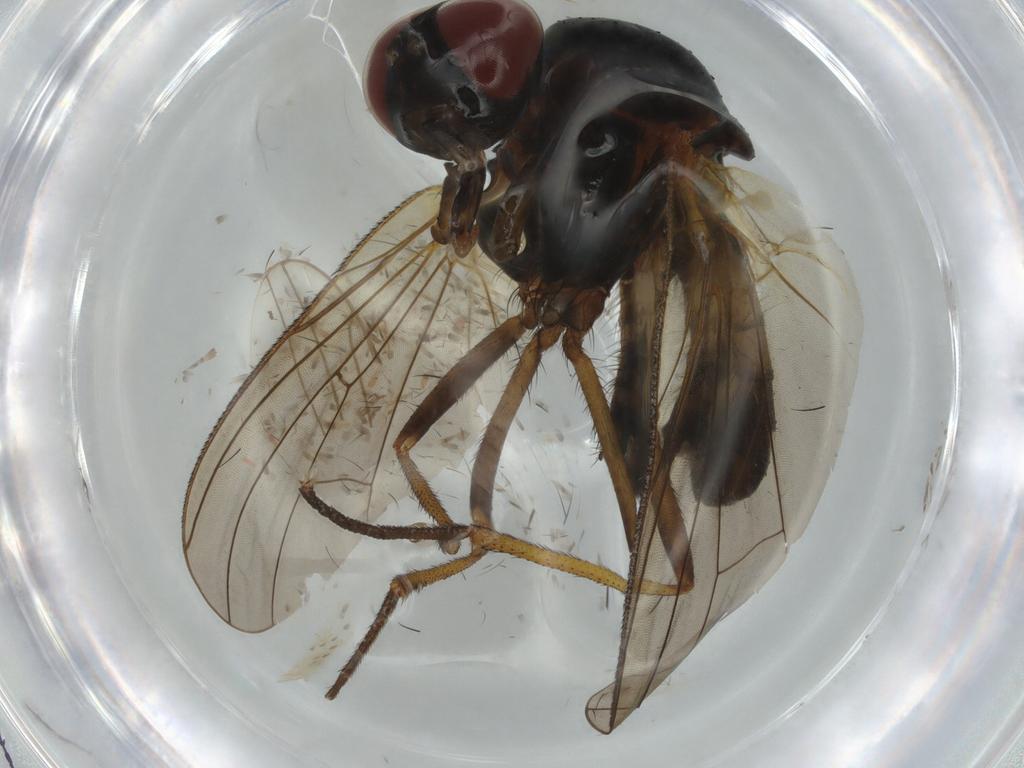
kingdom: Animalia
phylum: Arthropoda
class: Insecta
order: Diptera
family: Anthomyiidae
